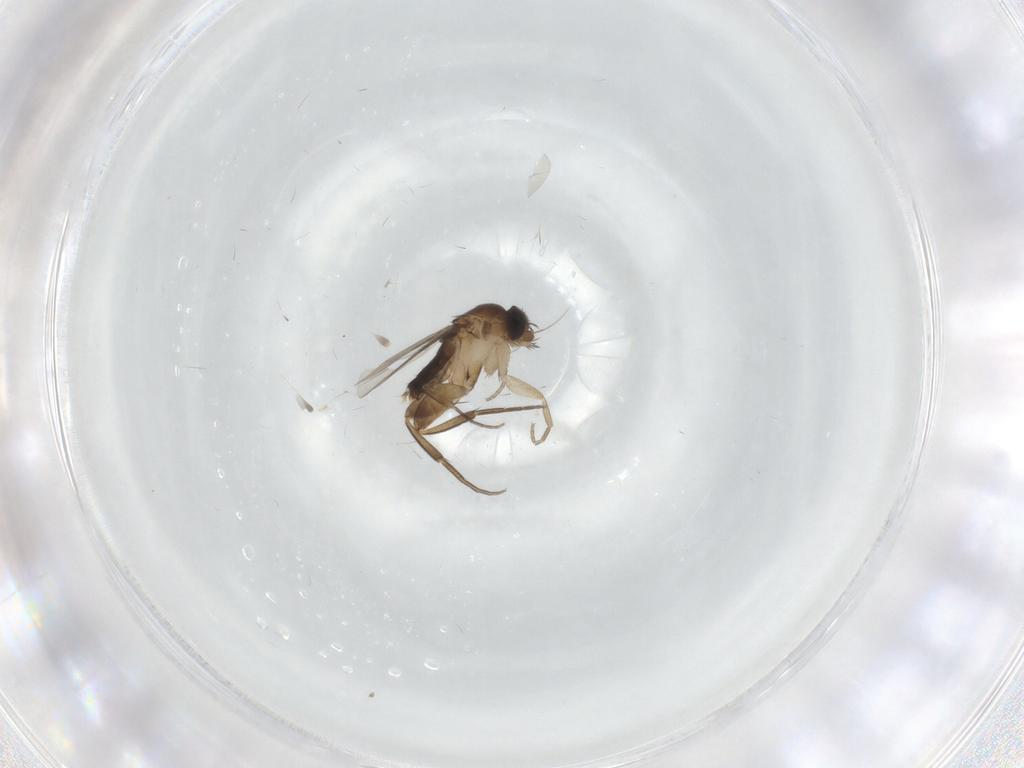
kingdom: Animalia
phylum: Arthropoda
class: Insecta
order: Diptera
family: Phoridae
